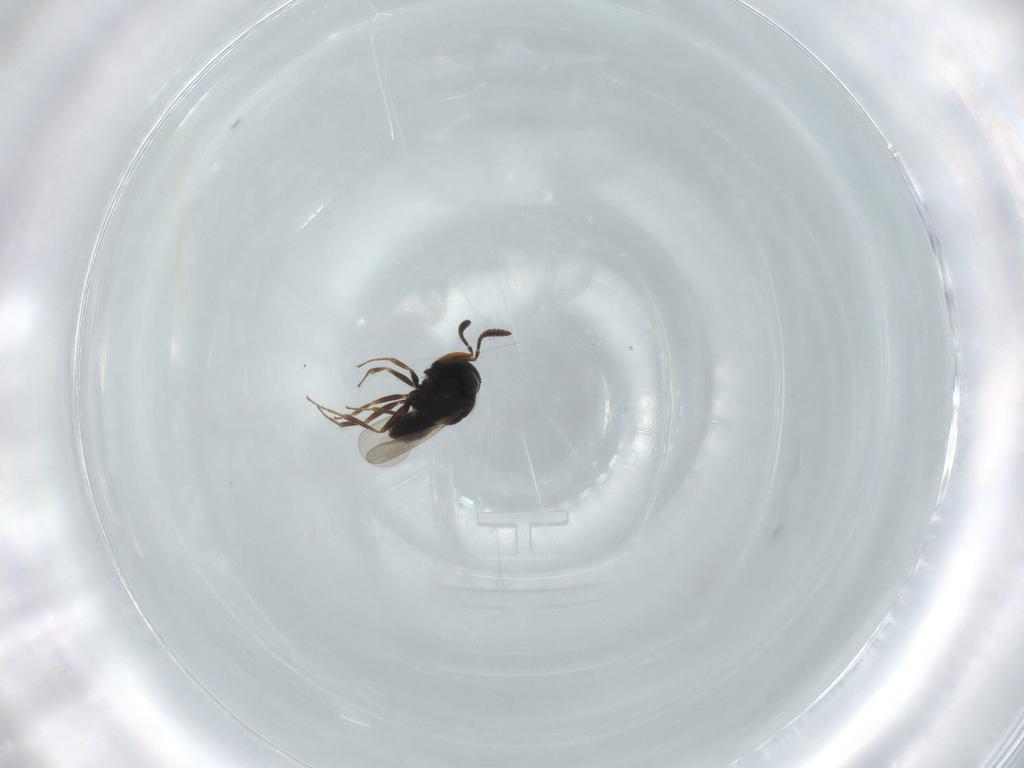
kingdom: Animalia
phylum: Arthropoda
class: Insecta
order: Hymenoptera
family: Scelionidae
